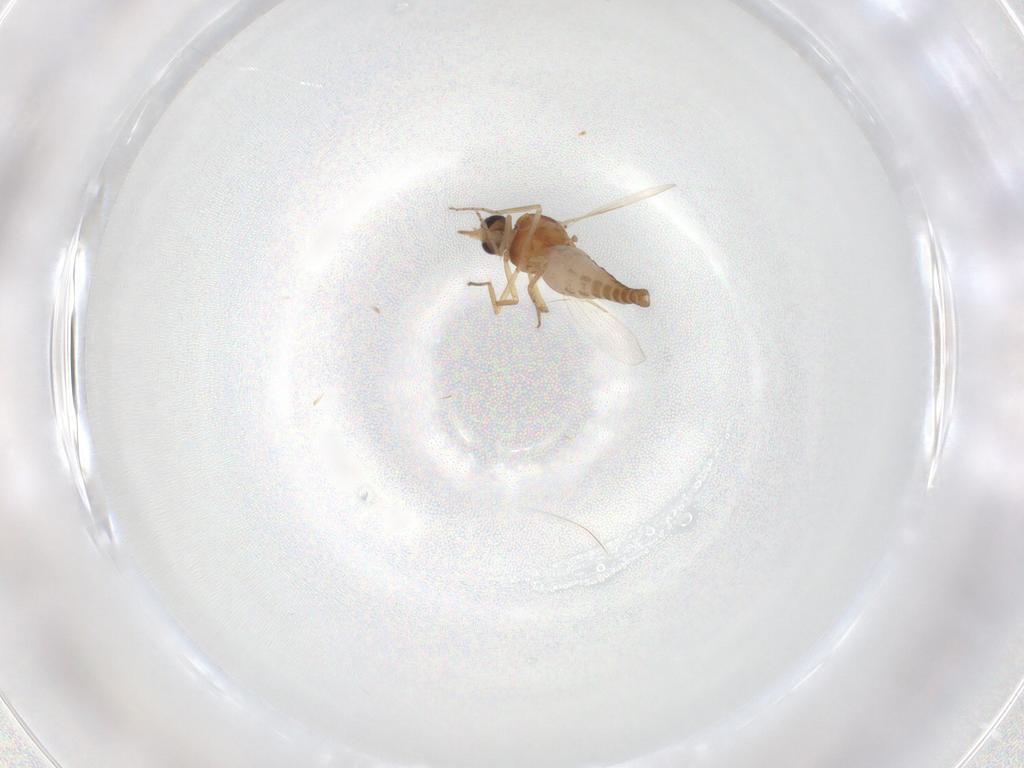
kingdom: Animalia
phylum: Arthropoda
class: Insecta
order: Diptera
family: Ceratopogonidae
